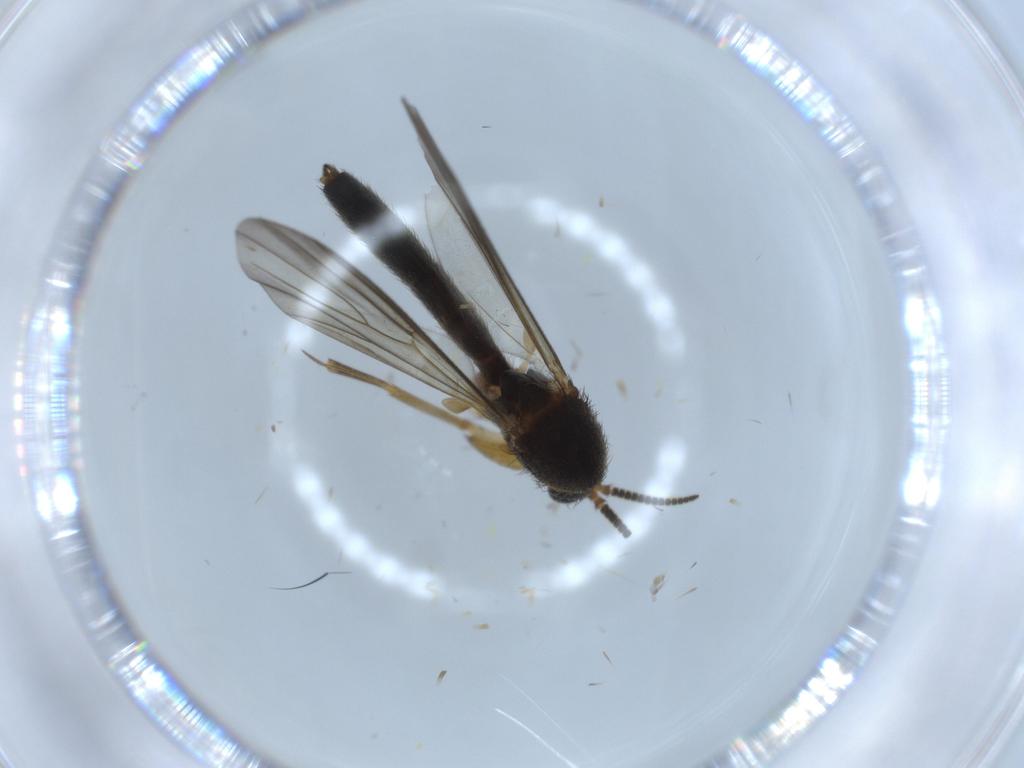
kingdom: Animalia
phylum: Arthropoda
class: Insecta
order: Diptera
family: Mycetophilidae
